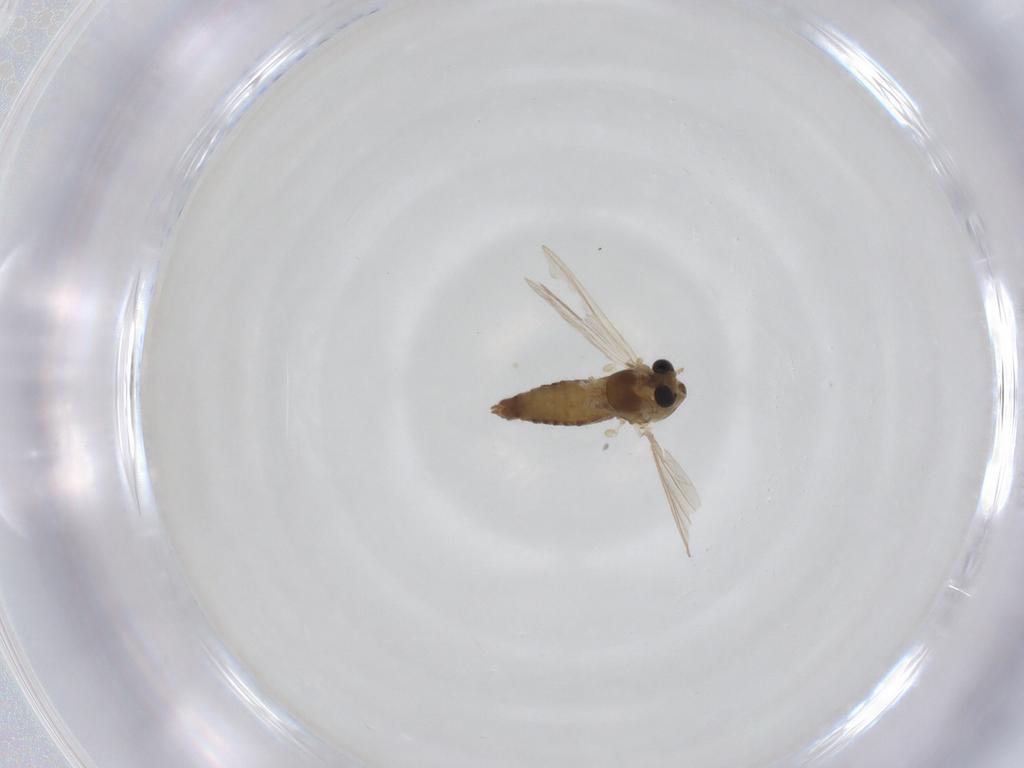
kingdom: Animalia
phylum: Arthropoda
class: Insecta
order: Diptera
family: Chironomidae
